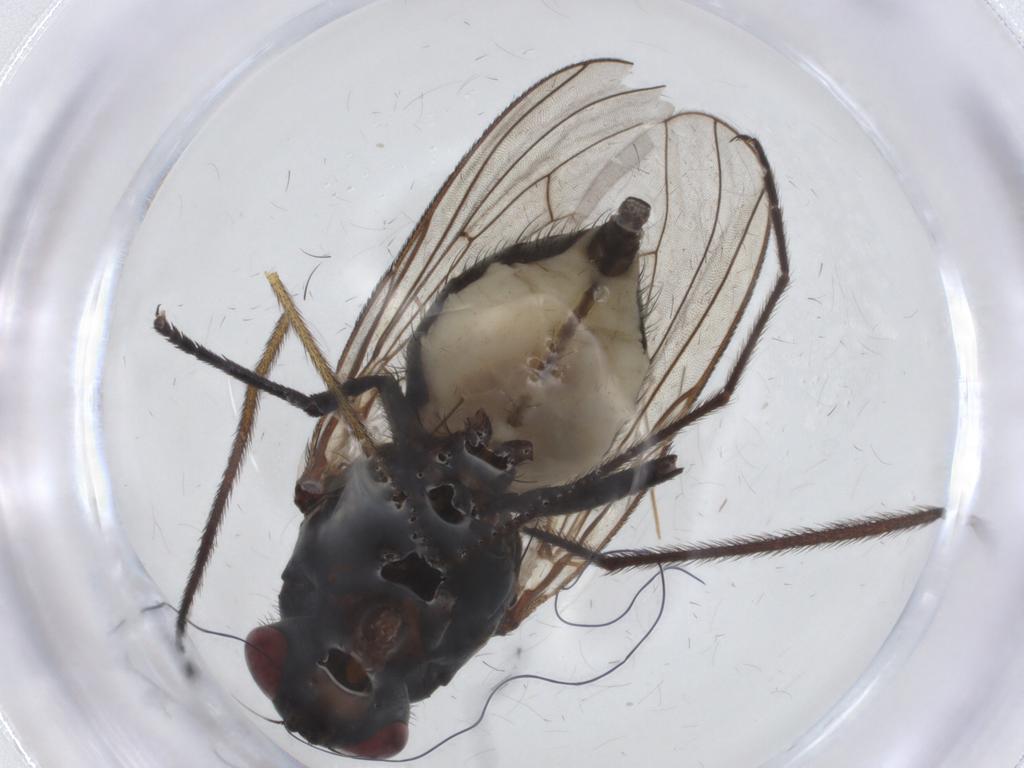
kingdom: Animalia
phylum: Arthropoda
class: Insecta
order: Diptera
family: Anthomyiidae
